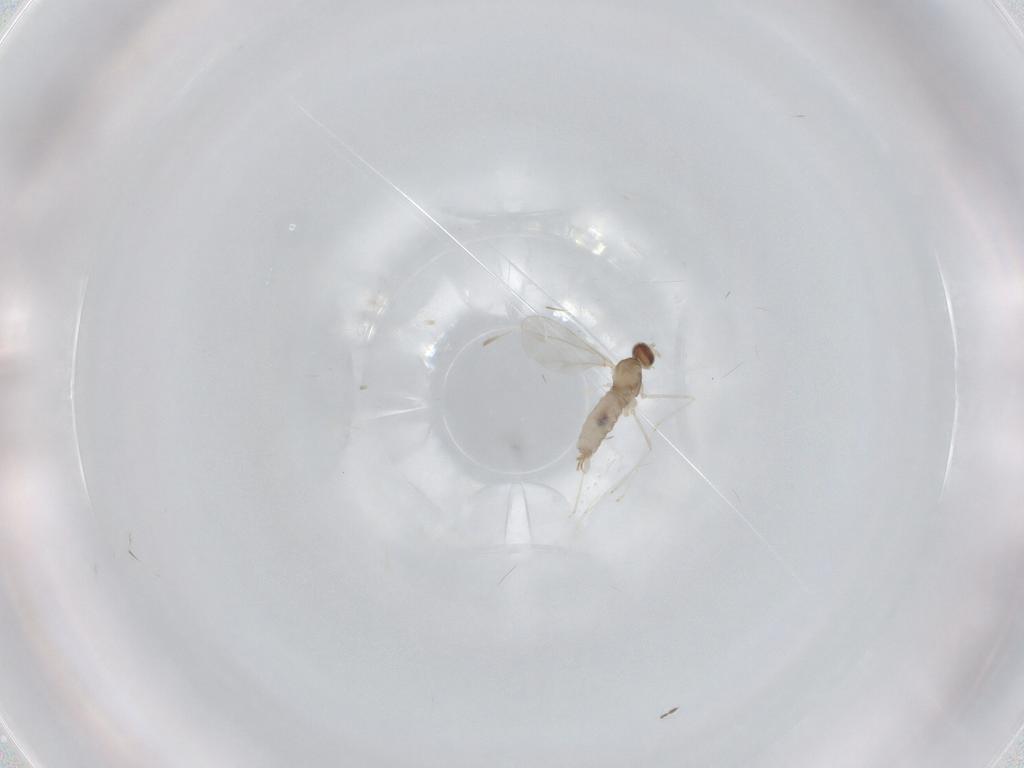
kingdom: Animalia
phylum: Arthropoda
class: Insecta
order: Diptera
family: Cecidomyiidae
